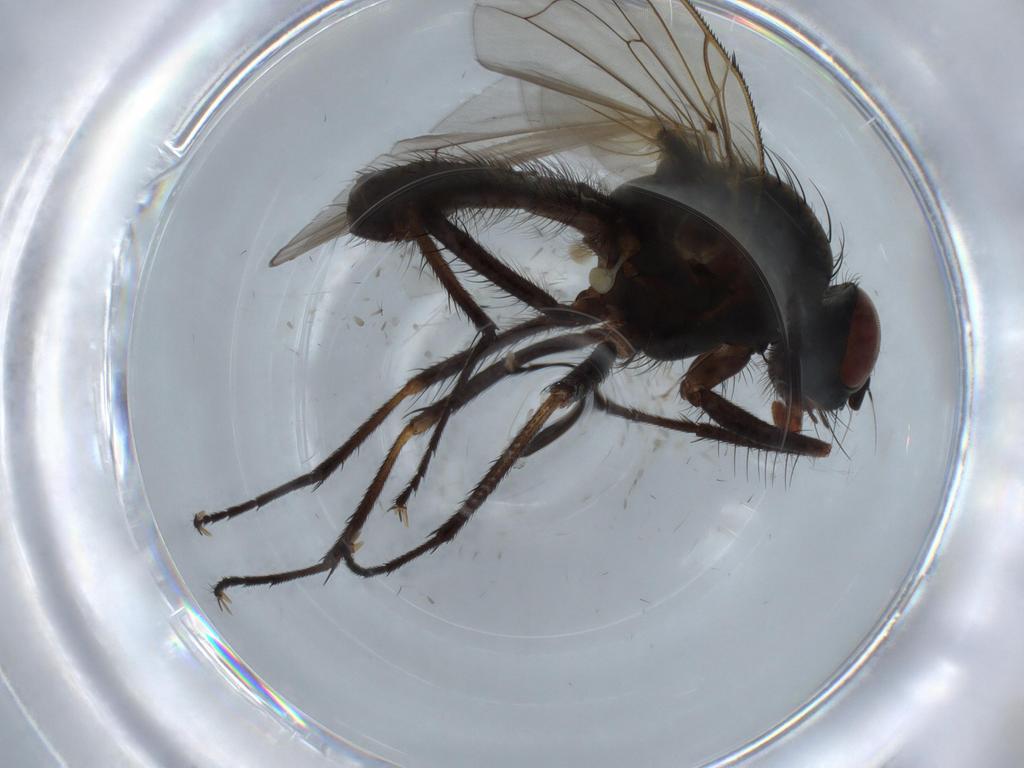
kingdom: Animalia
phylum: Arthropoda
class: Insecta
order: Diptera
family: Anthomyiidae
